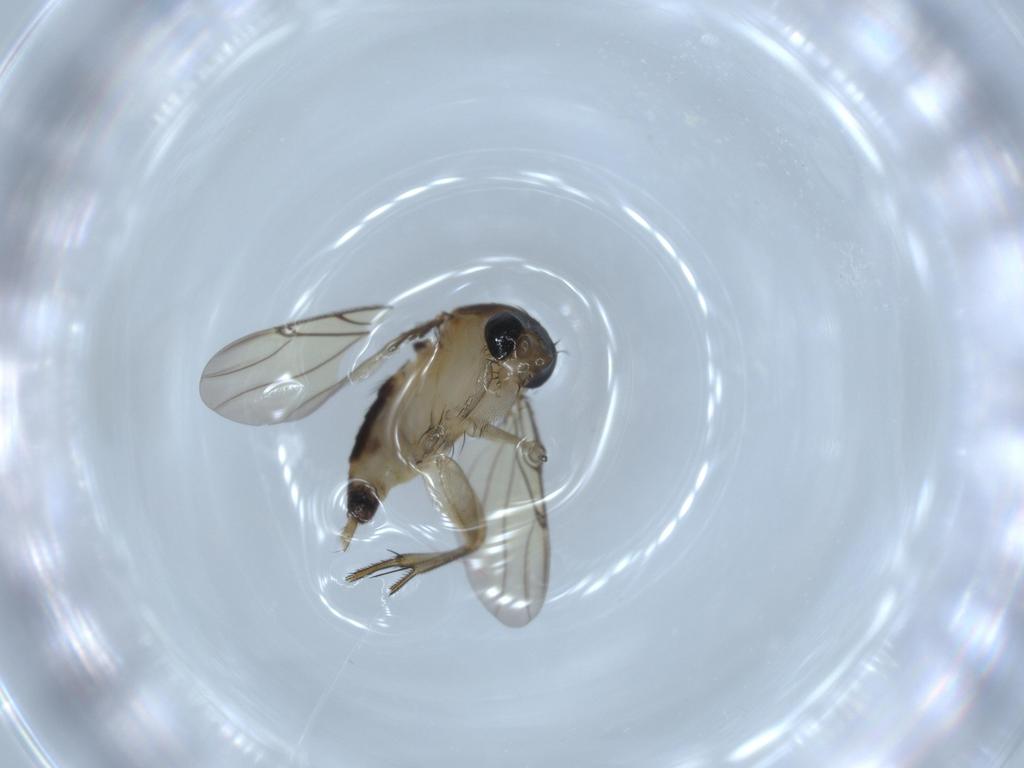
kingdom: Animalia
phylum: Arthropoda
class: Insecta
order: Diptera
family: Phoridae
